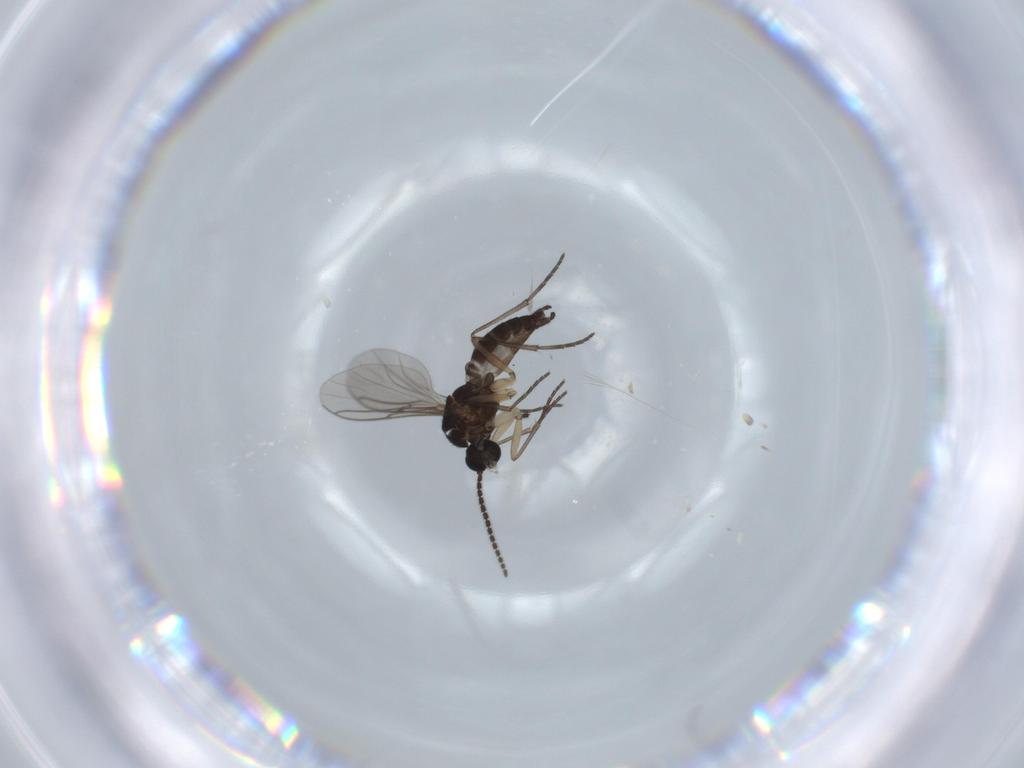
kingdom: Animalia
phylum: Arthropoda
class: Insecta
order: Diptera
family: Sciaridae
